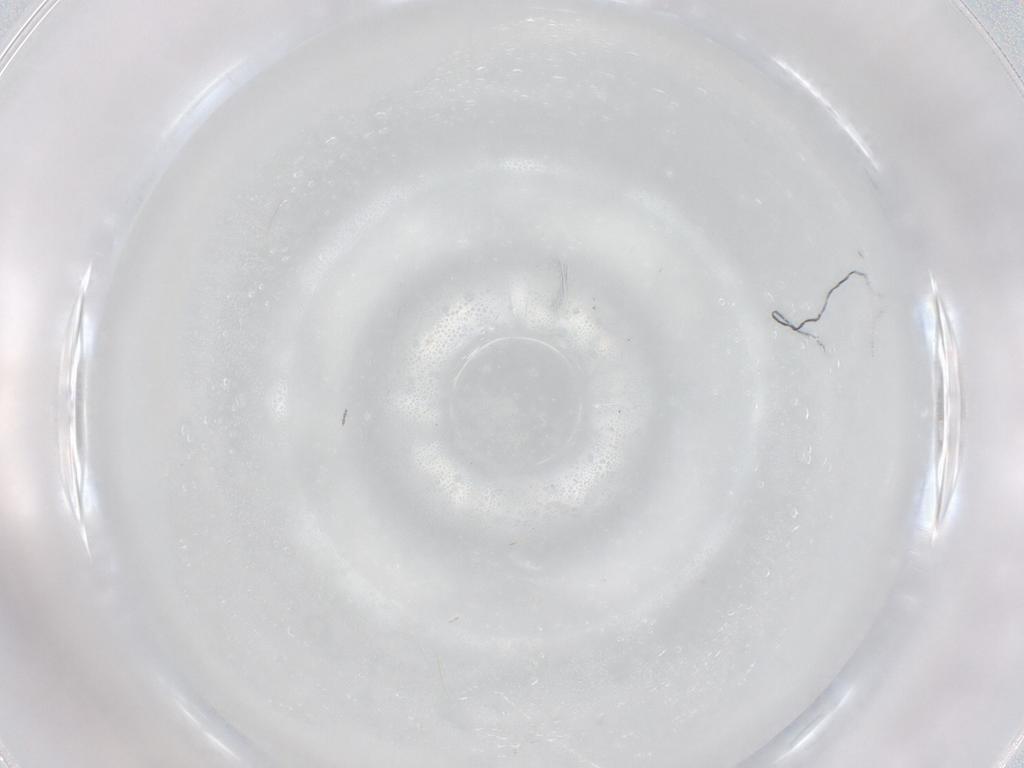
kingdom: Animalia
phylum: Arthropoda
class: Insecta
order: Diptera
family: Cecidomyiidae
